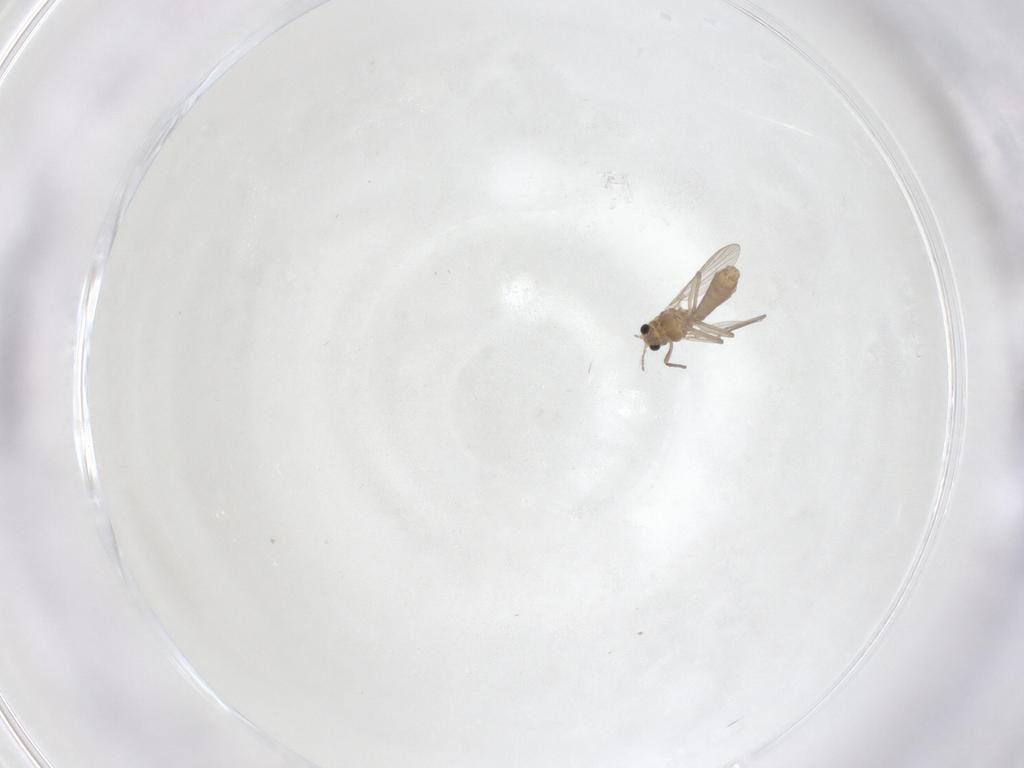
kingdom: Animalia
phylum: Arthropoda
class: Insecta
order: Diptera
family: Chironomidae
